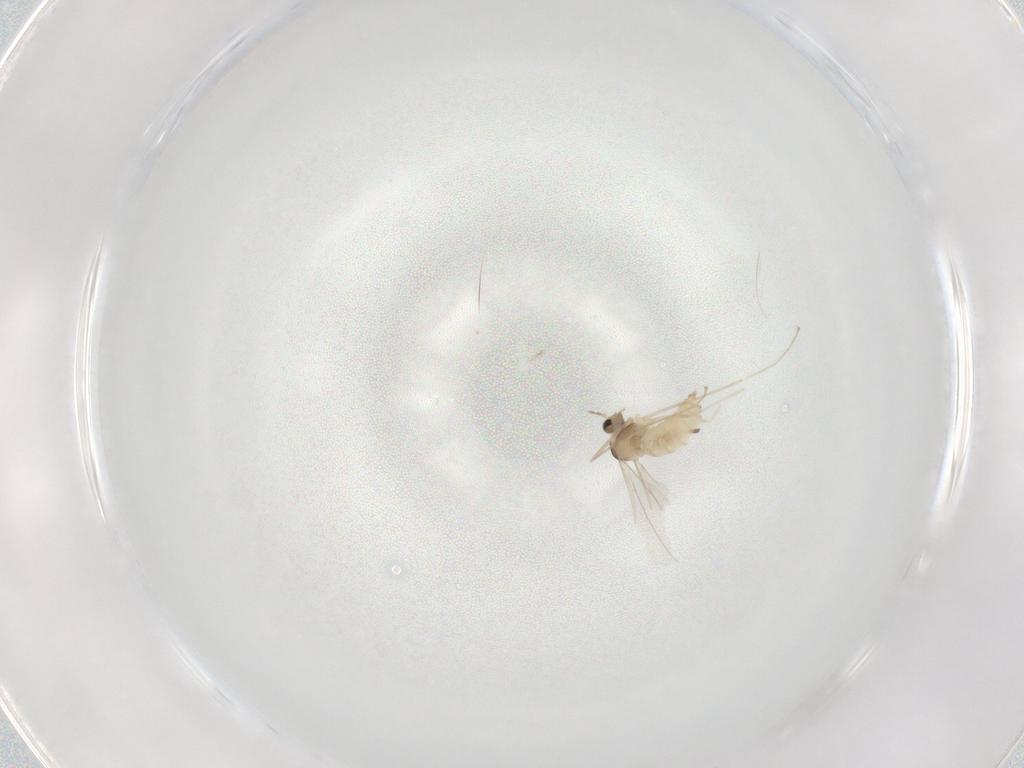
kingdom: Animalia
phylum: Arthropoda
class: Insecta
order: Diptera
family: Cecidomyiidae
